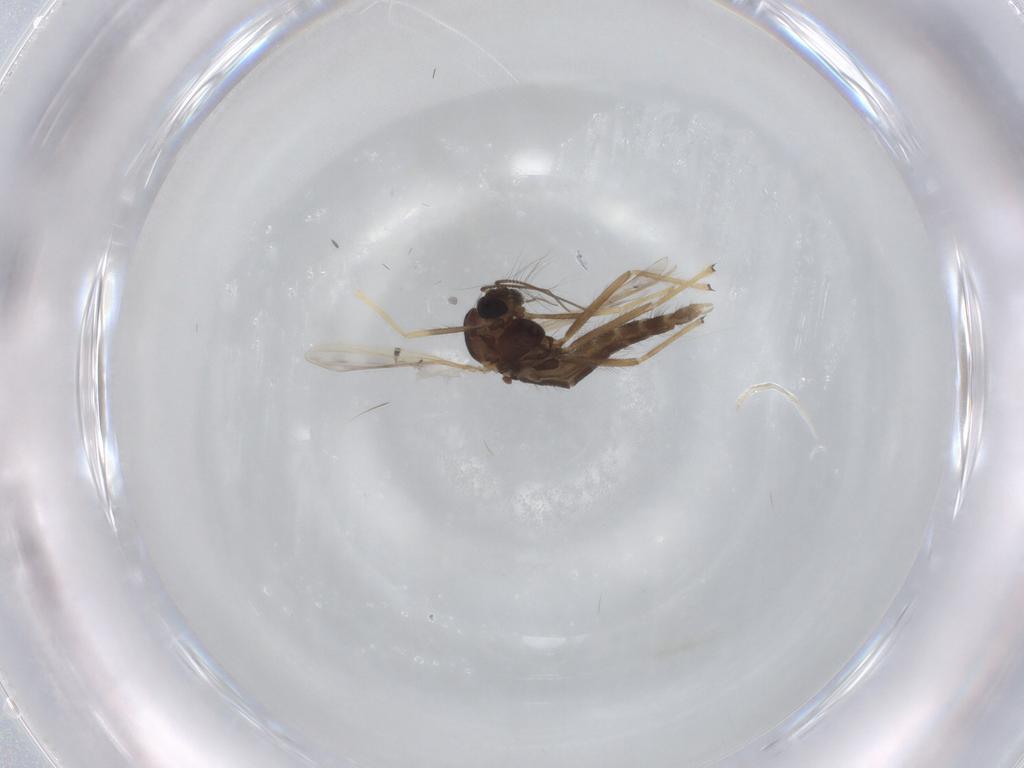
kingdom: Animalia
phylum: Arthropoda
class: Insecta
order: Diptera
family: Chironomidae
